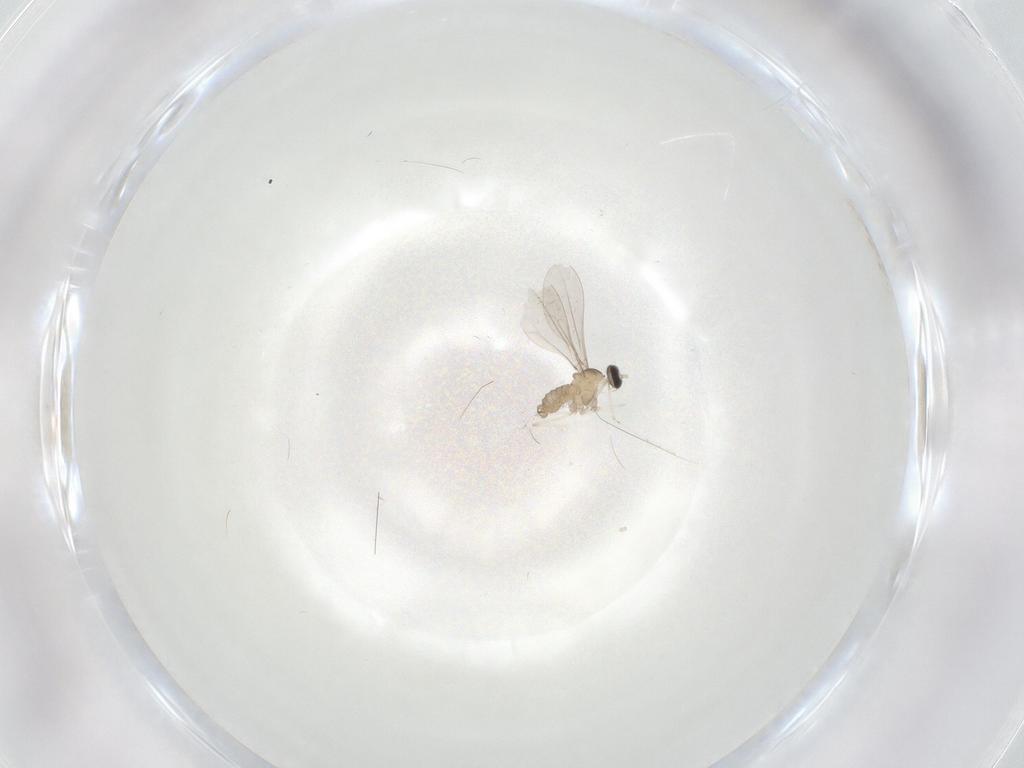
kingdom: Animalia
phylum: Arthropoda
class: Insecta
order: Diptera
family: Cecidomyiidae
